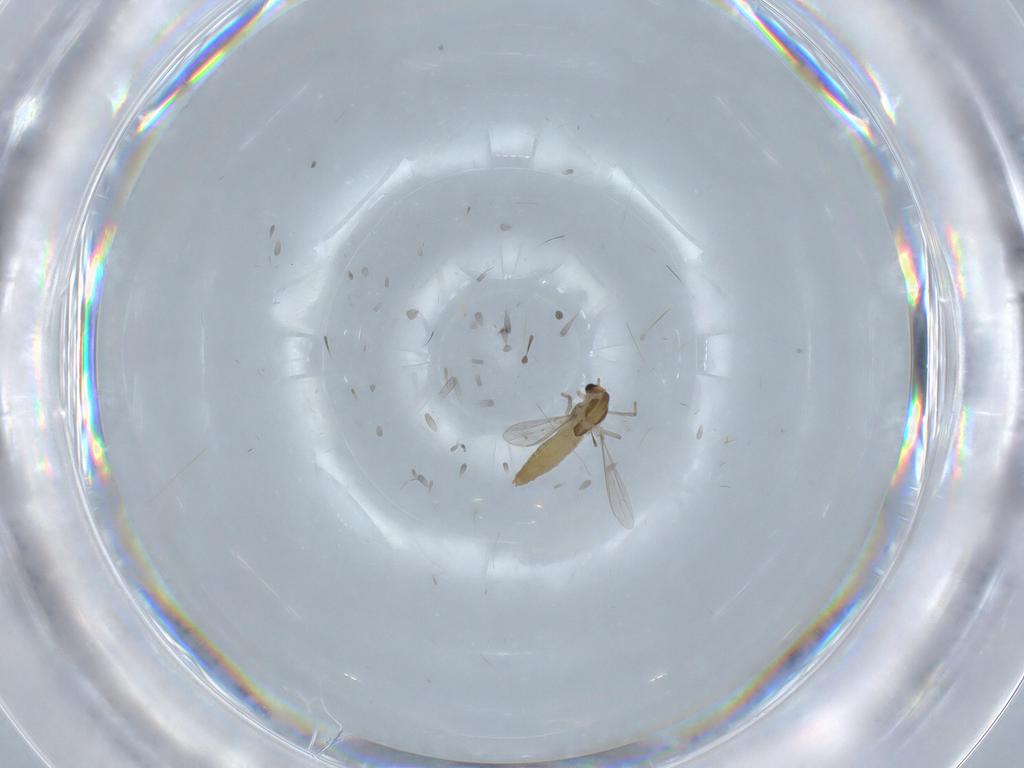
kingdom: Animalia
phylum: Arthropoda
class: Insecta
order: Diptera
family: Chironomidae
